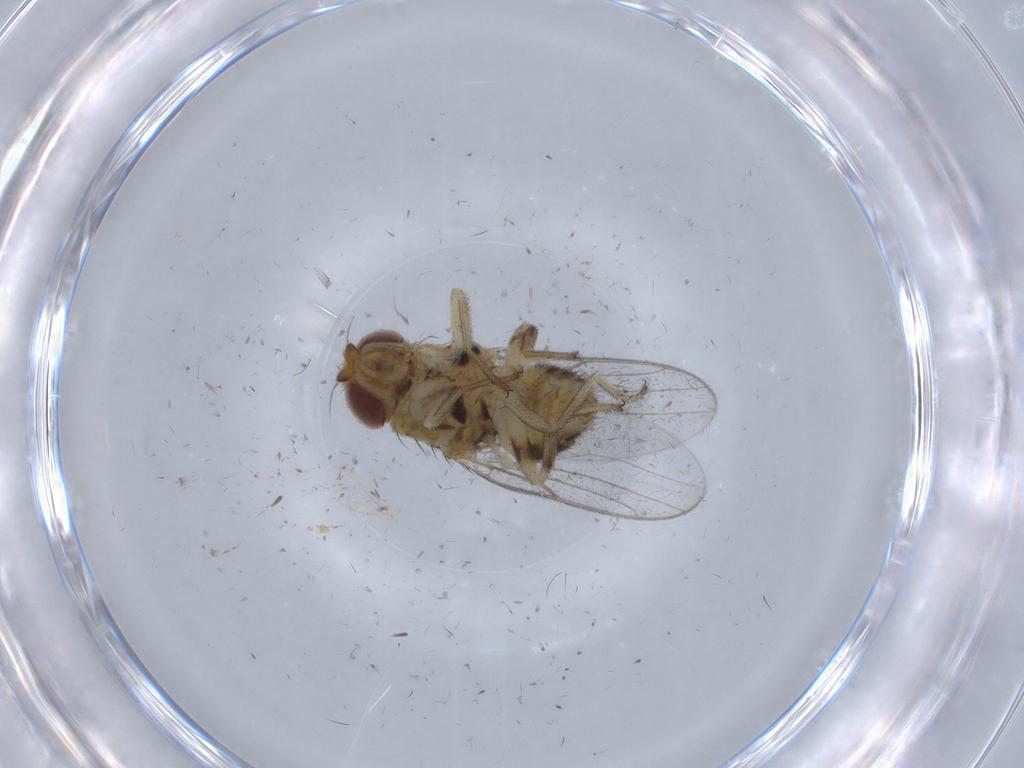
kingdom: Animalia
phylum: Arthropoda
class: Insecta
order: Diptera
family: Chloropidae
